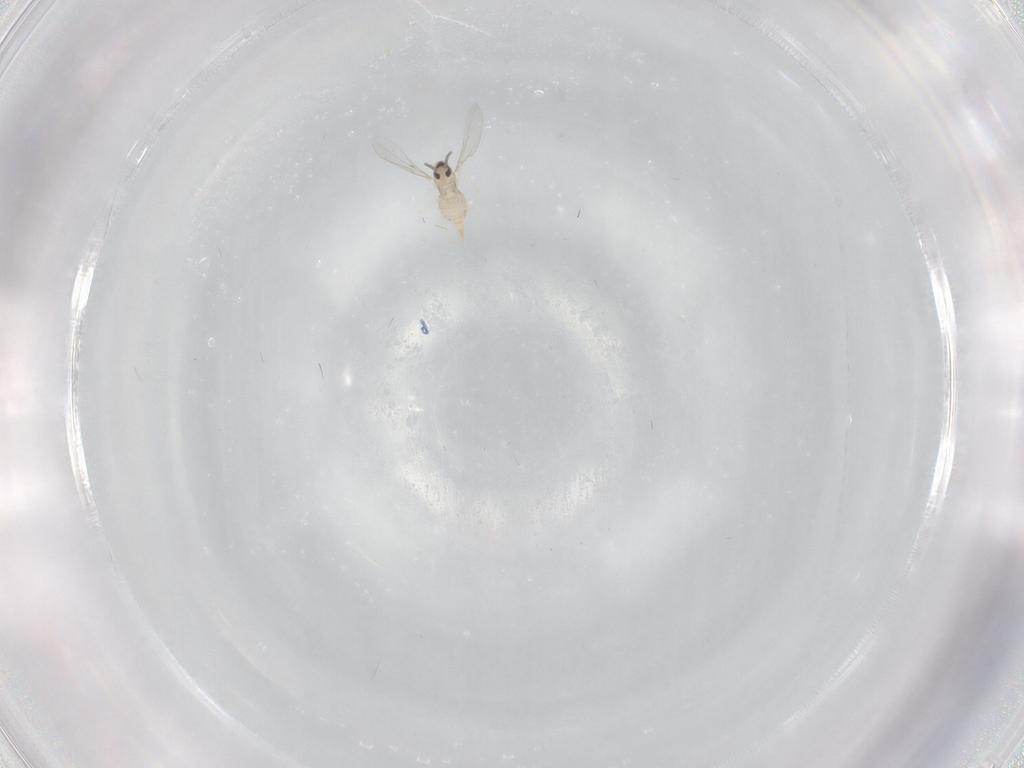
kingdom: Animalia
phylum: Arthropoda
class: Insecta
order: Diptera
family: Cecidomyiidae
